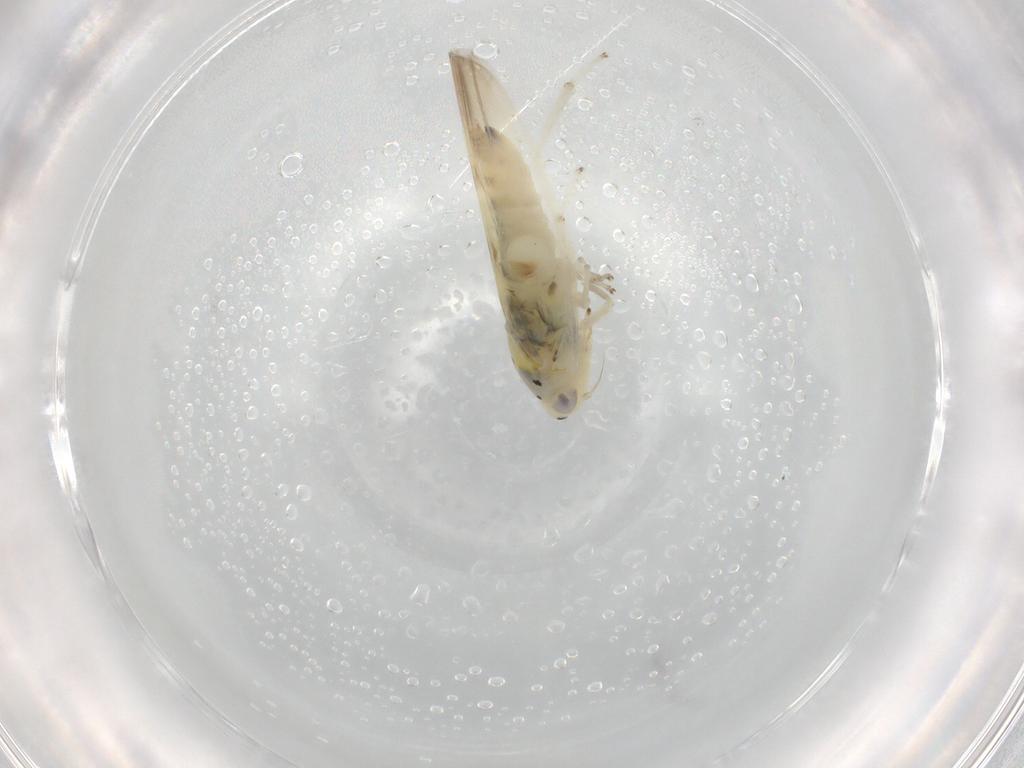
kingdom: Animalia
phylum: Arthropoda
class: Insecta
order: Hemiptera
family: Cicadellidae
